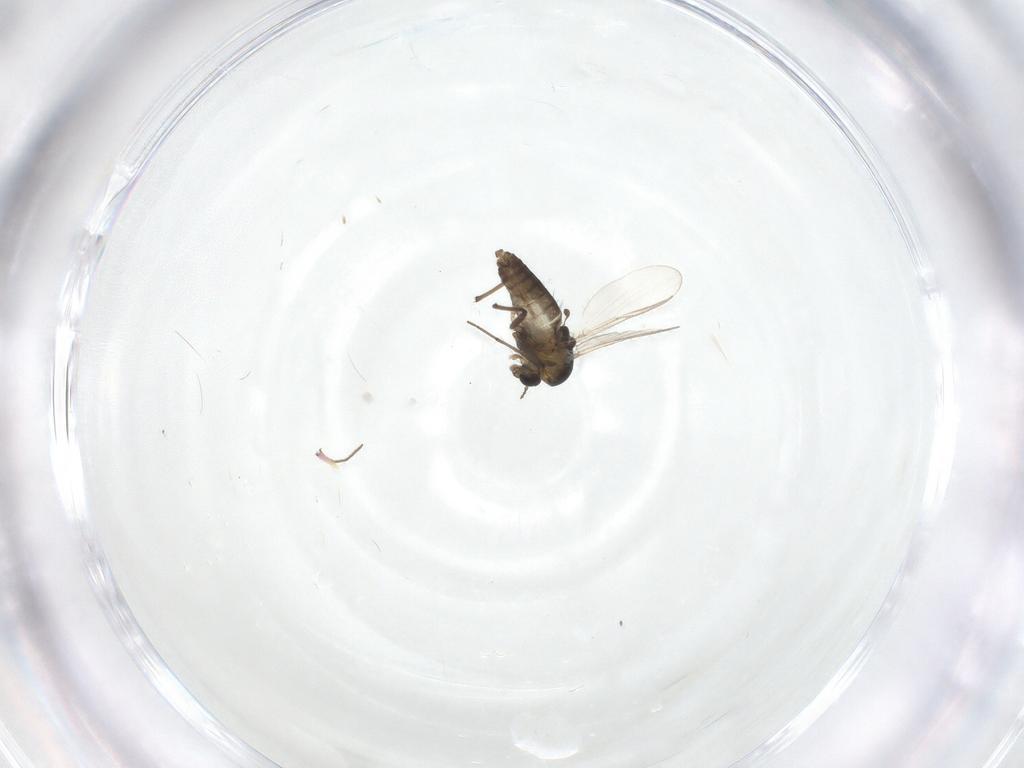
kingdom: Animalia
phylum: Arthropoda
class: Insecta
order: Diptera
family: Chironomidae
